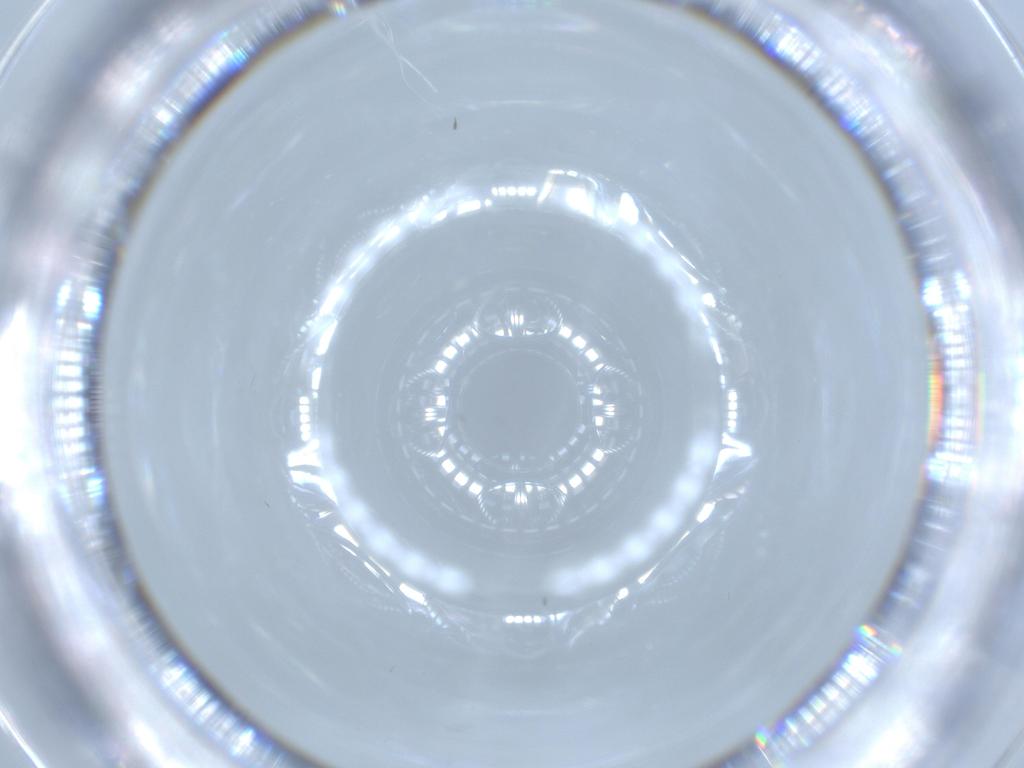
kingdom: Animalia
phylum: Arthropoda
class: Insecta
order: Diptera
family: Cecidomyiidae
